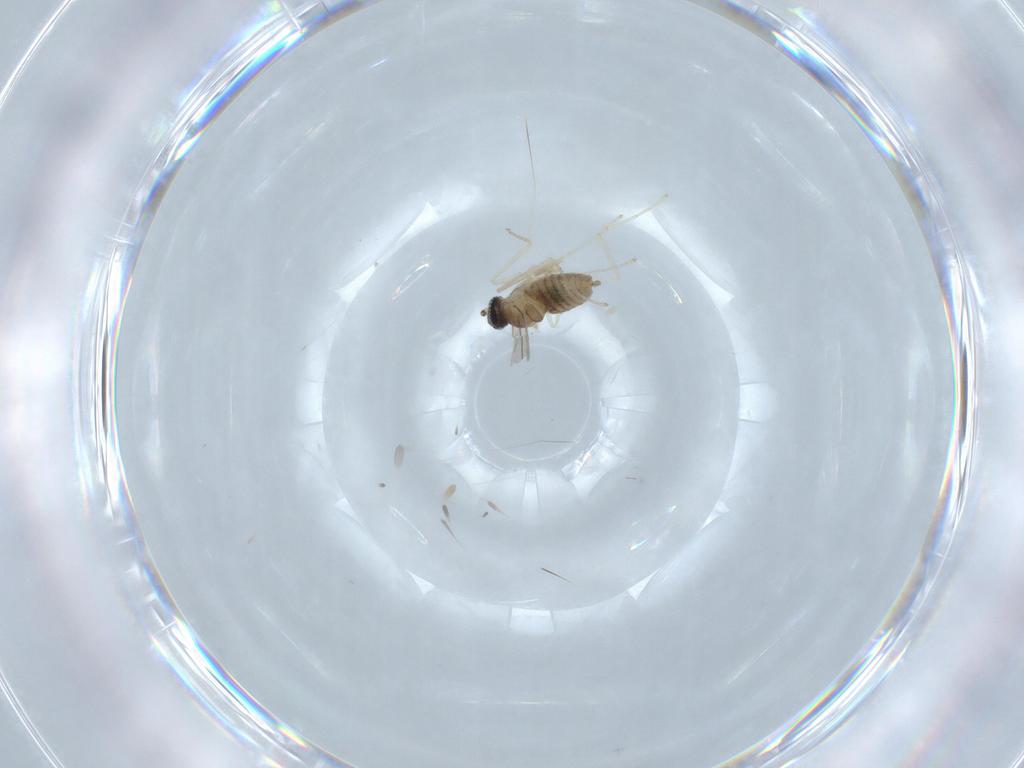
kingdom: Animalia
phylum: Arthropoda
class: Insecta
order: Diptera
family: Cecidomyiidae
